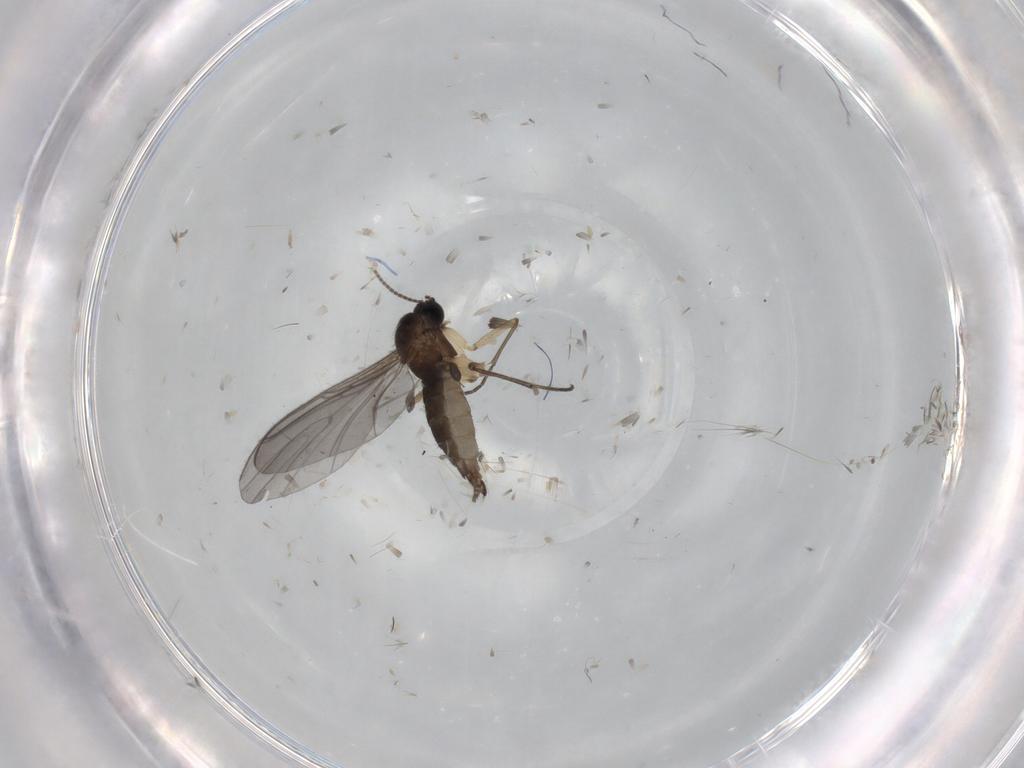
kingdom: Animalia
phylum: Arthropoda
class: Insecta
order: Diptera
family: Sciaridae
